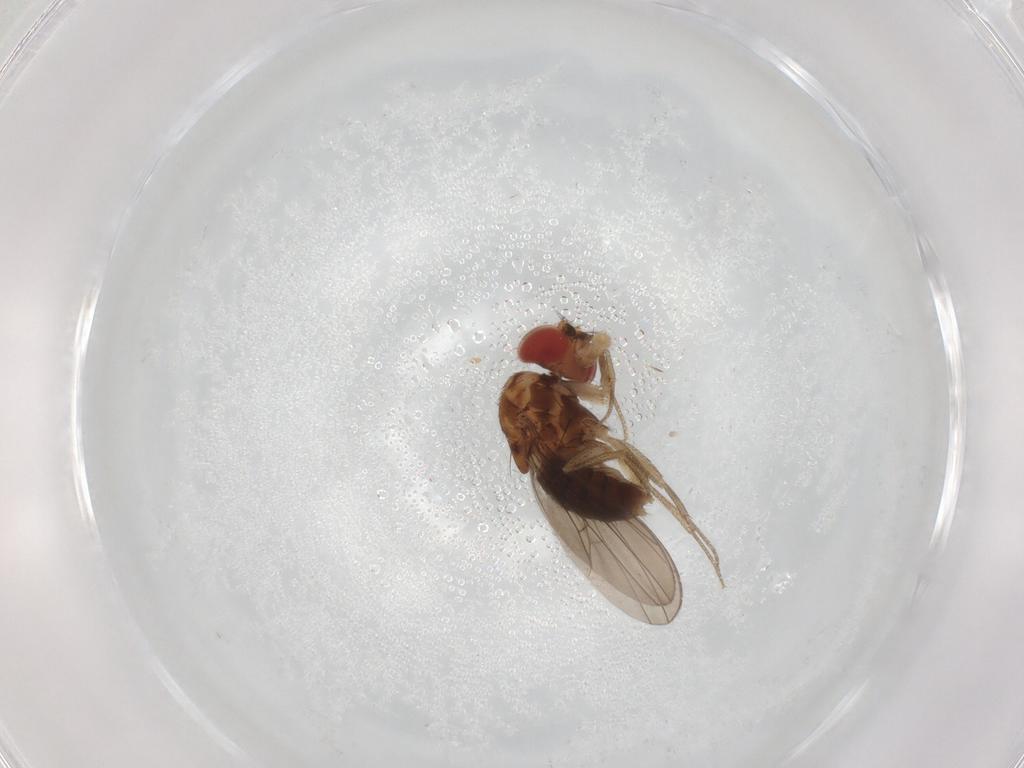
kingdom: Animalia
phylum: Arthropoda
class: Insecta
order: Diptera
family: Drosophilidae
